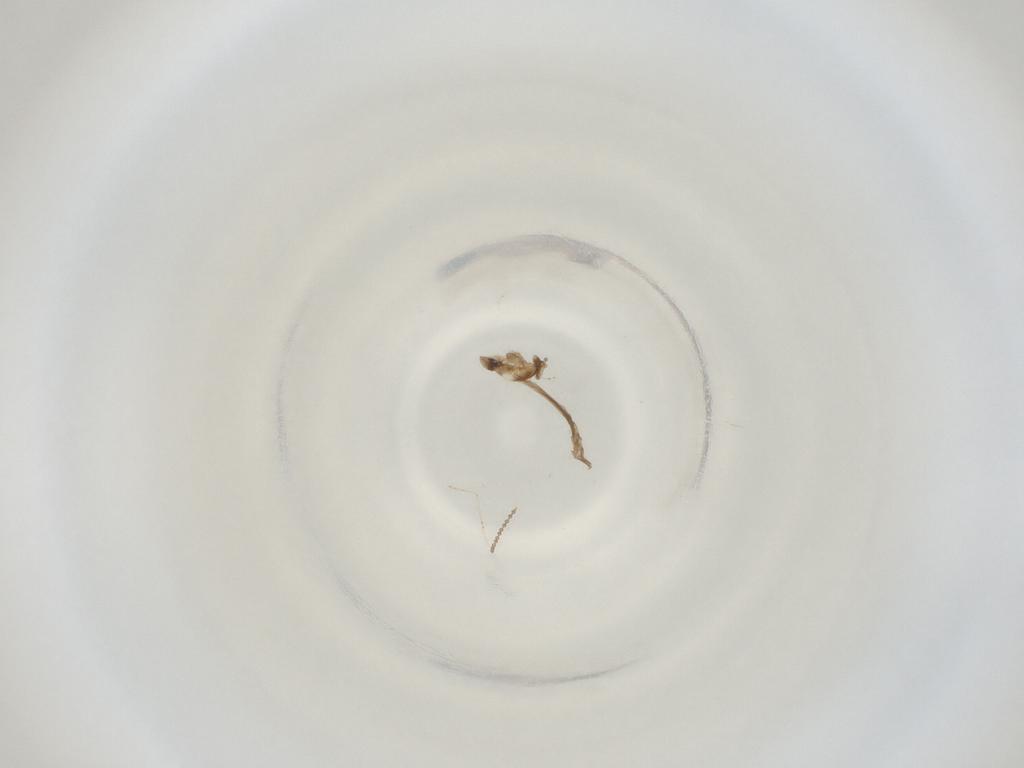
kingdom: Animalia
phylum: Arthropoda
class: Insecta
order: Diptera
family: Cecidomyiidae
